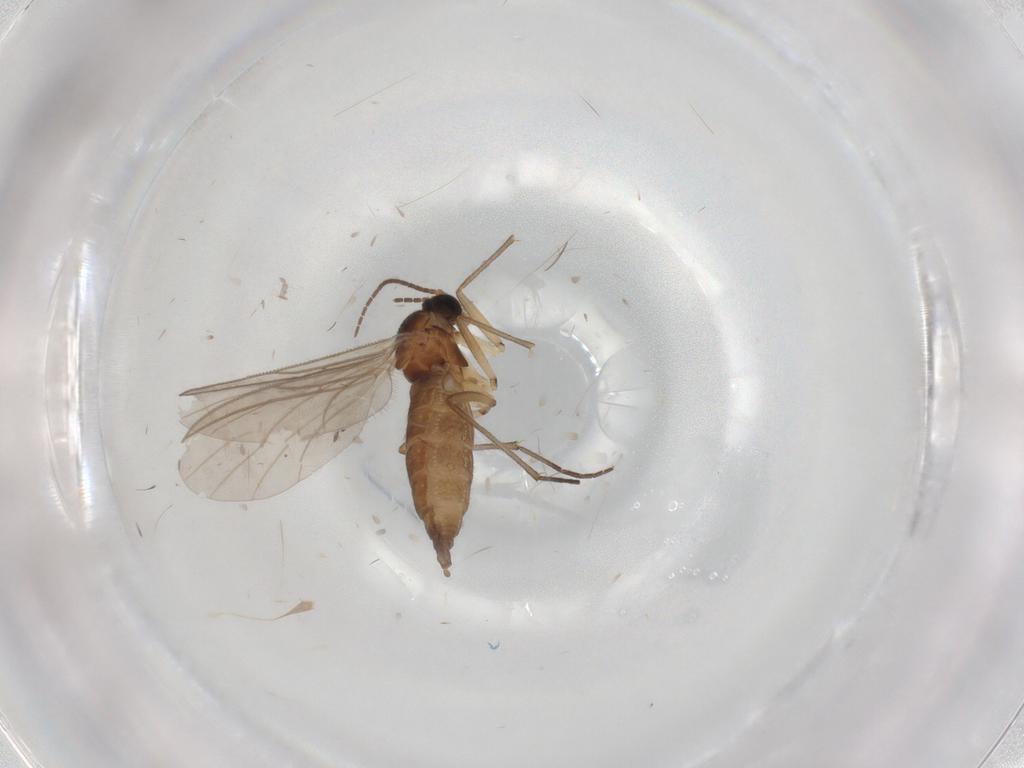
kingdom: Animalia
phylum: Arthropoda
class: Insecta
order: Diptera
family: Sciaridae
